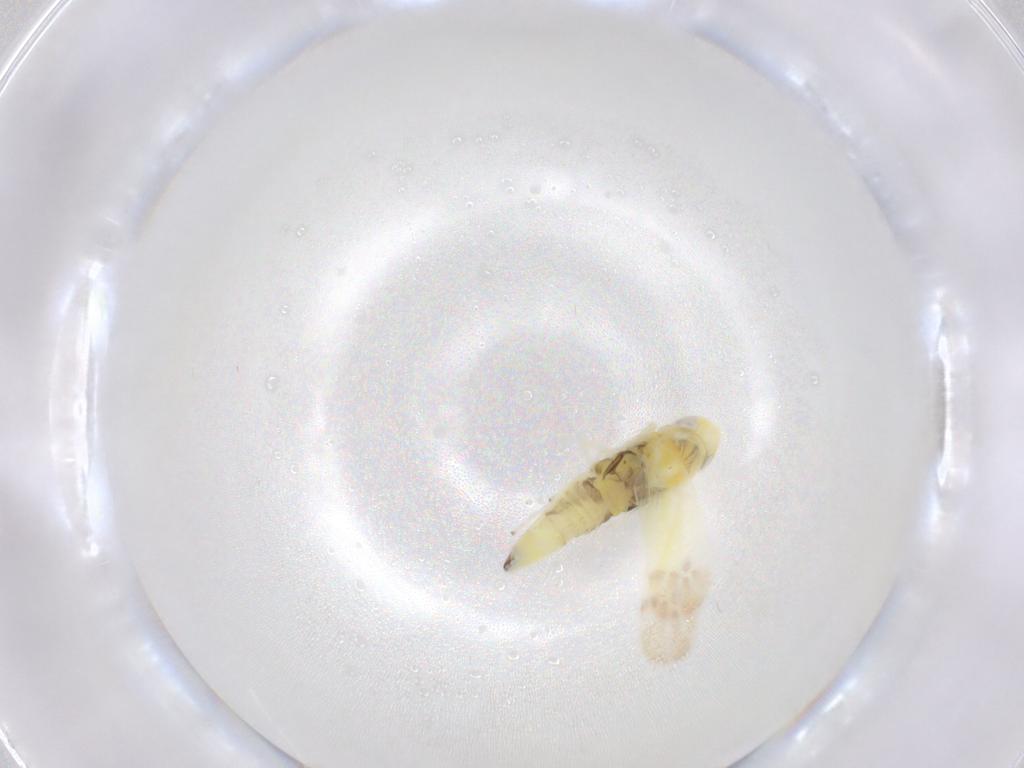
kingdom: Animalia
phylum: Arthropoda
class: Insecta
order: Hemiptera
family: Cicadellidae
